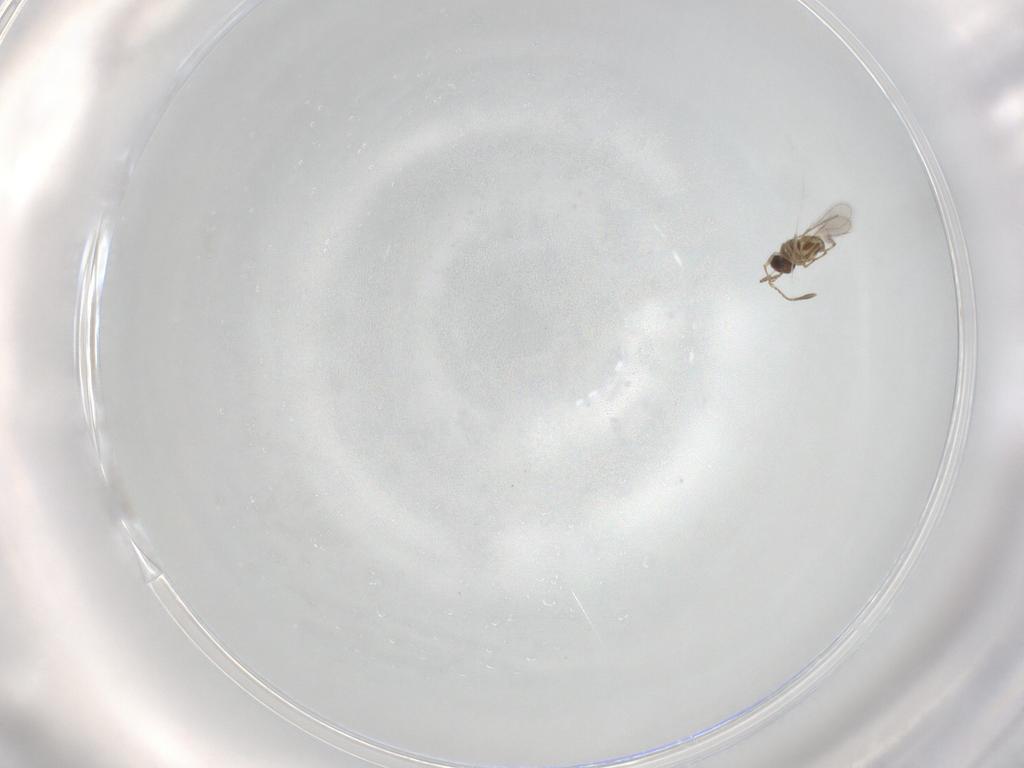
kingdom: Animalia
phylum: Arthropoda
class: Insecta
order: Hymenoptera
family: Mymaridae
